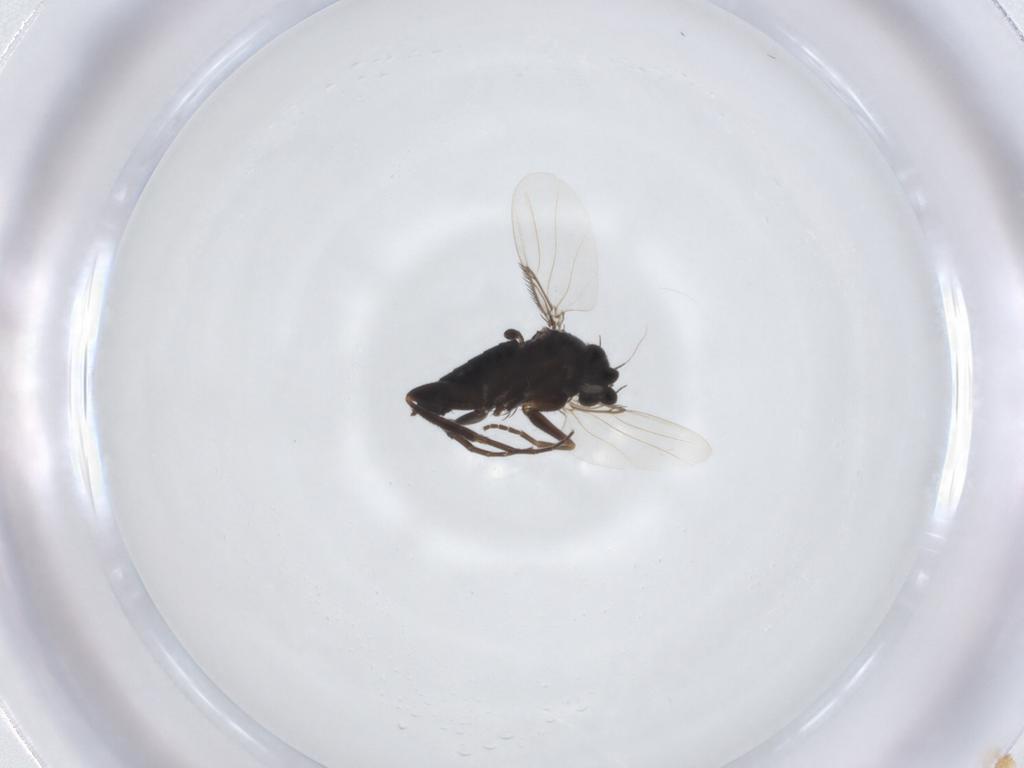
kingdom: Animalia
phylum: Arthropoda
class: Insecta
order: Diptera
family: Phoridae
